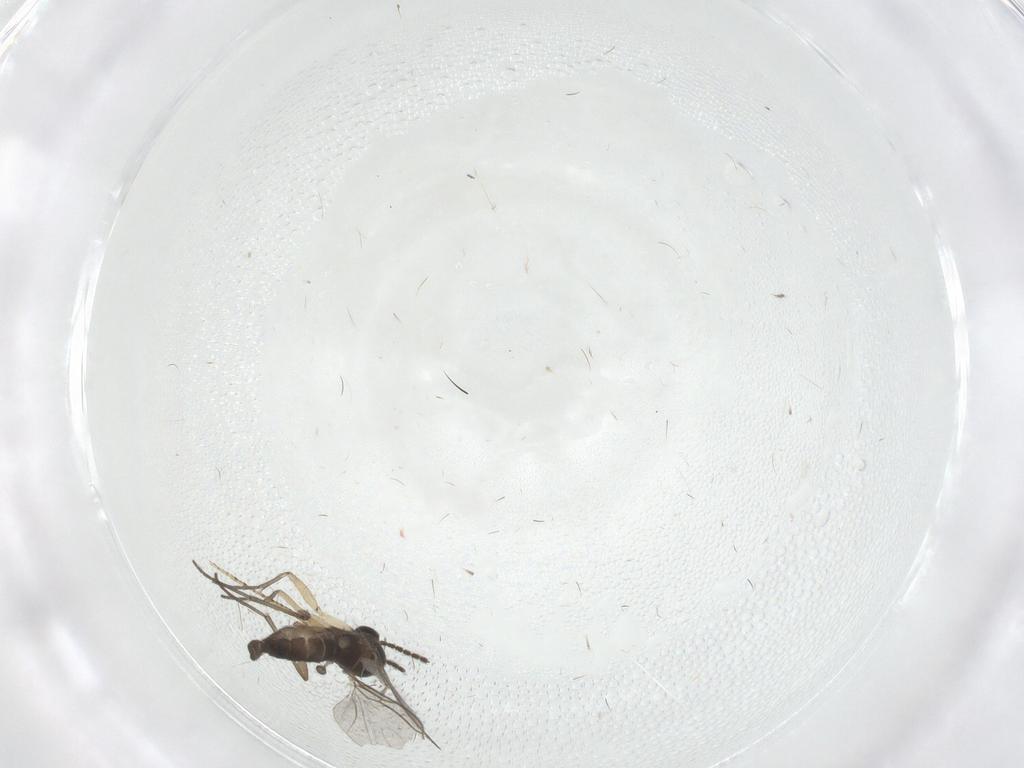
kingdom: Animalia
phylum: Arthropoda
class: Insecta
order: Diptera
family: Sciaridae
